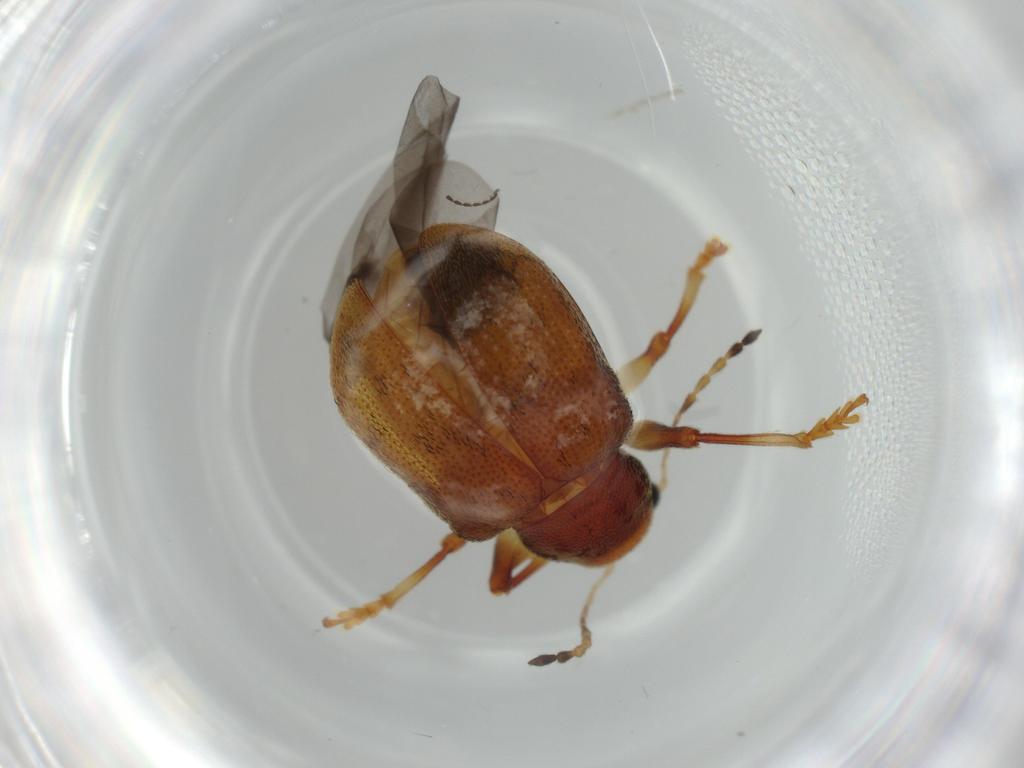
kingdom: Animalia
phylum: Arthropoda
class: Insecta
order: Coleoptera
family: Chrysomelidae
